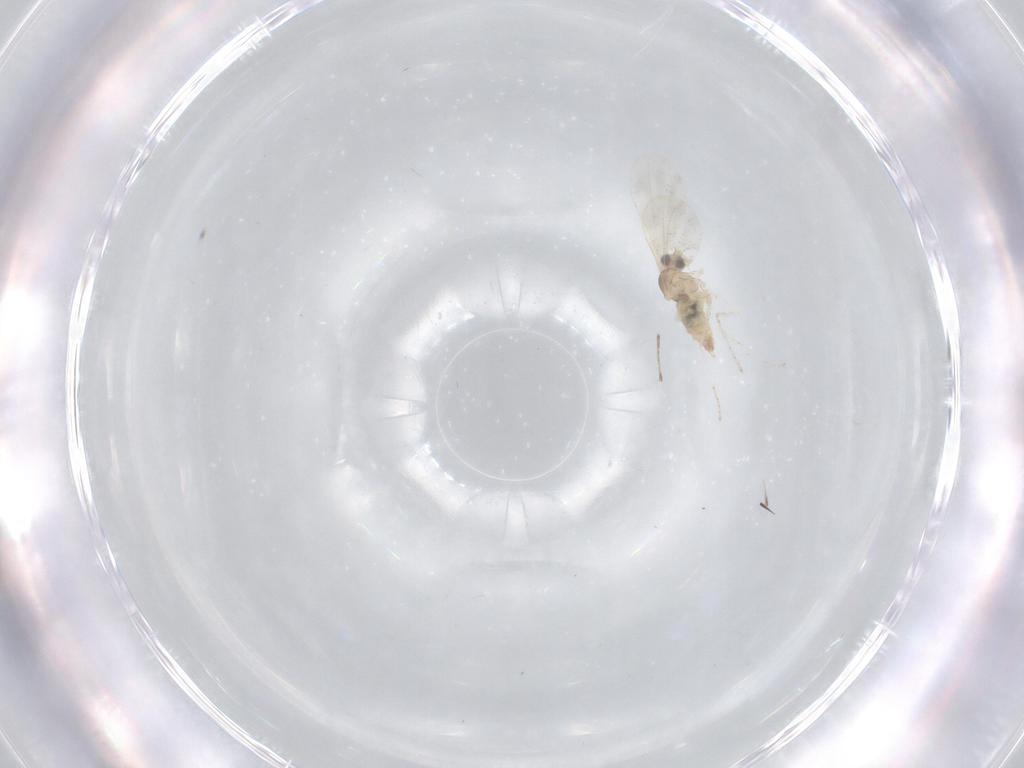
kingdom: Animalia
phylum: Arthropoda
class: Insecta
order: Diptera
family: Cecidomyiidae
